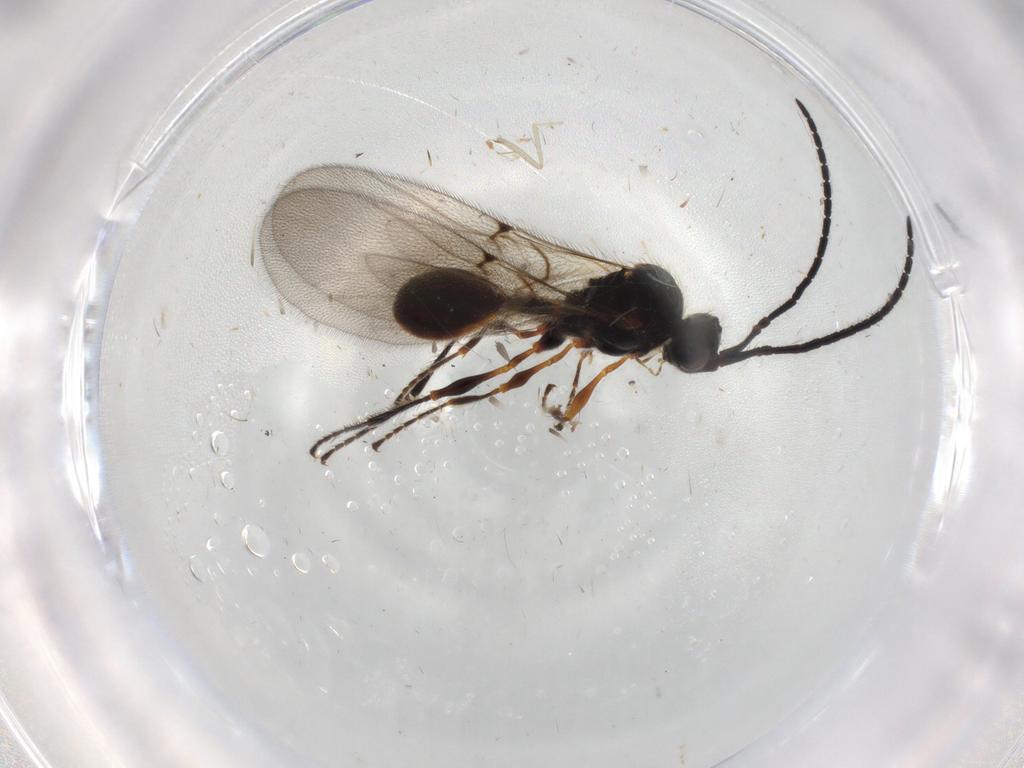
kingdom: Animalia
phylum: Arthropoda
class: Insecta
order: Hymenoptera
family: Diapriidae
